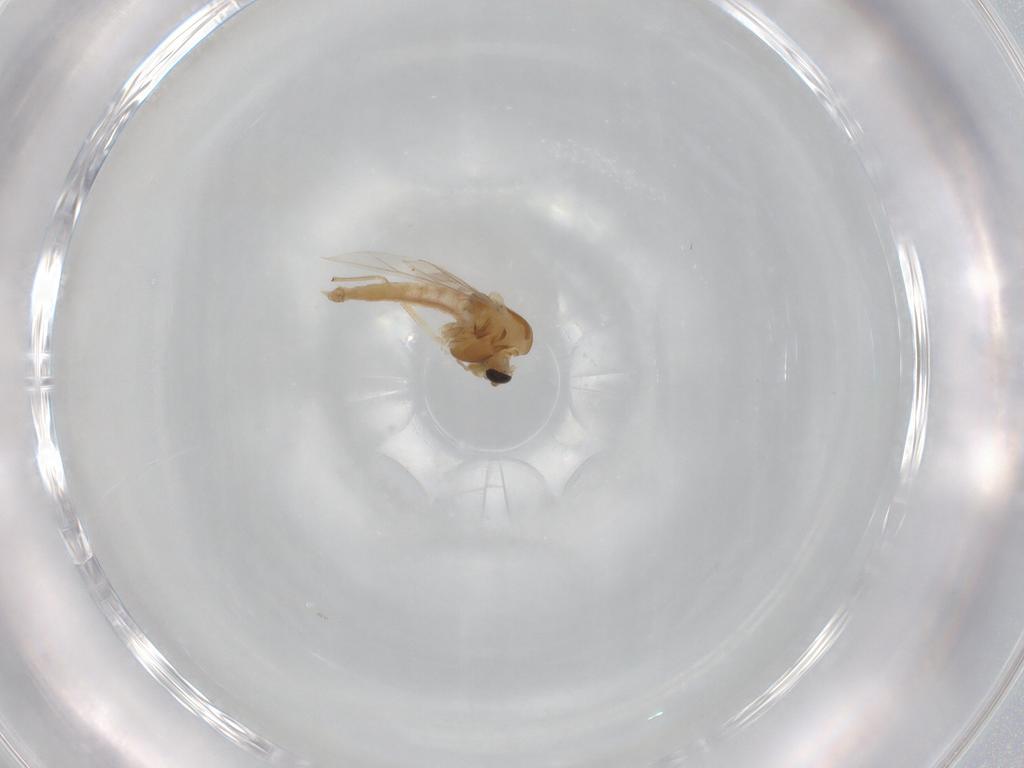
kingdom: Animalia
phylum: Arthropoda
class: Insecta
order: Diptera
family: Chironomidae
